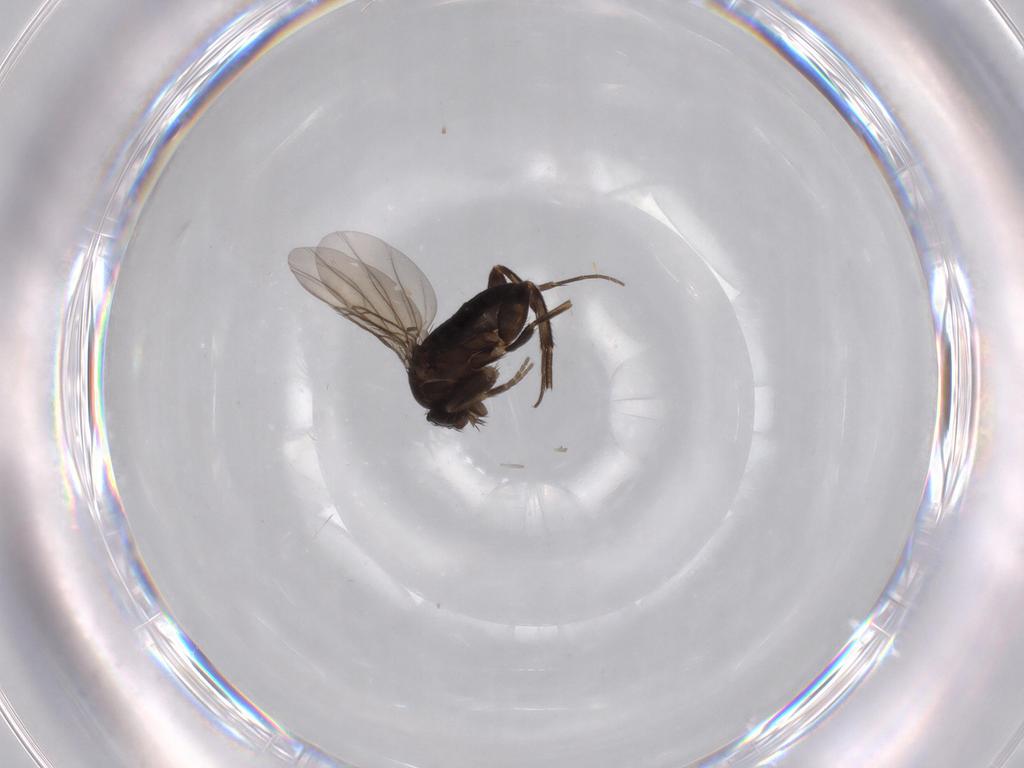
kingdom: Animalia
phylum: Arthropoda
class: Insecta
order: Diptera
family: Phoridae
